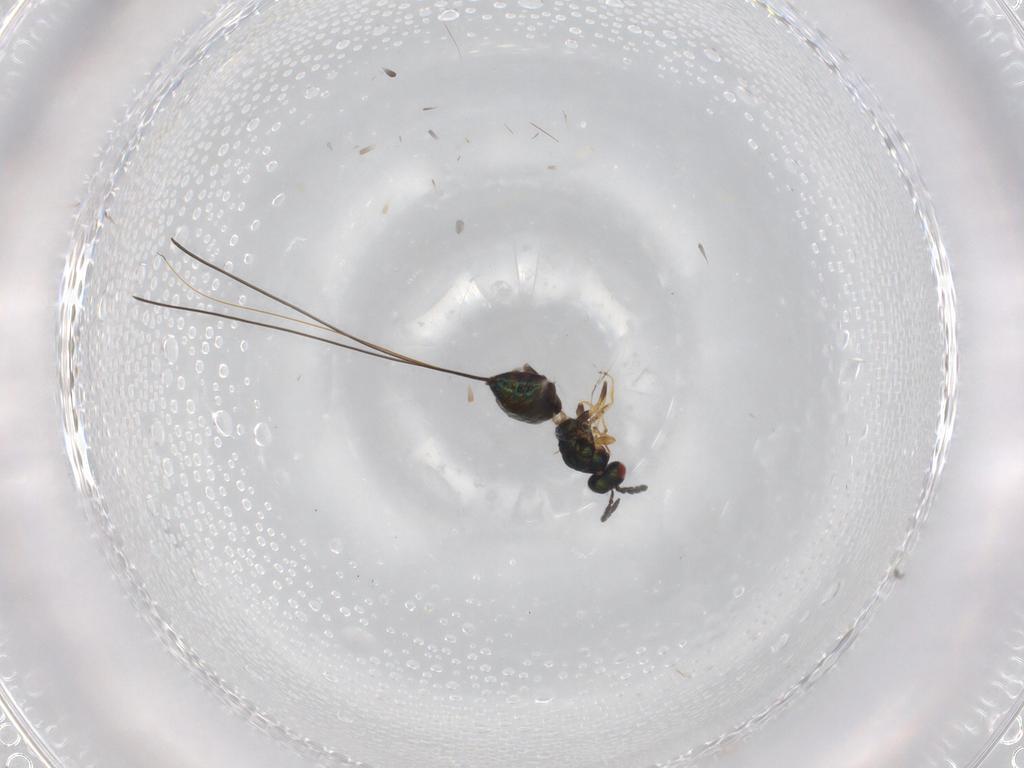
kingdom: Animalia
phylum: Arthropoda
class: Insecta
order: Hymenoptera
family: Pteromalidae
